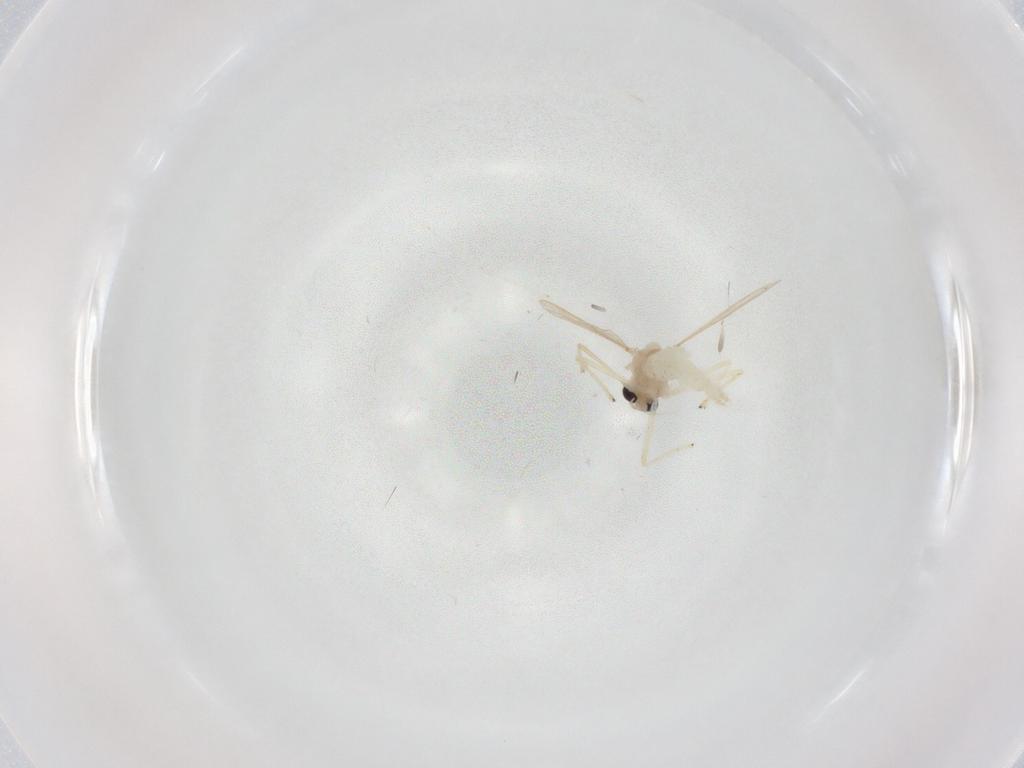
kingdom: Animalia
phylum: Arthropoda
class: Insecta
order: Diptera
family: Chironomidae
